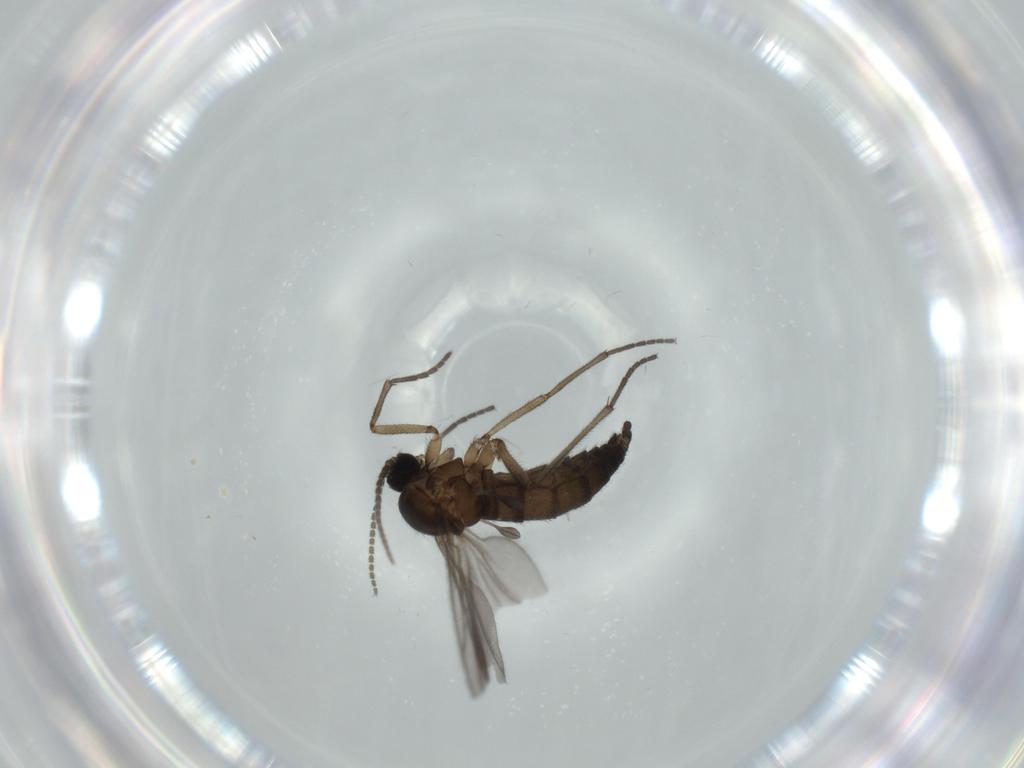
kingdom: Animalia
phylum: Arthropoda
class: Insecta
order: Diptera
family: Sciaridae
